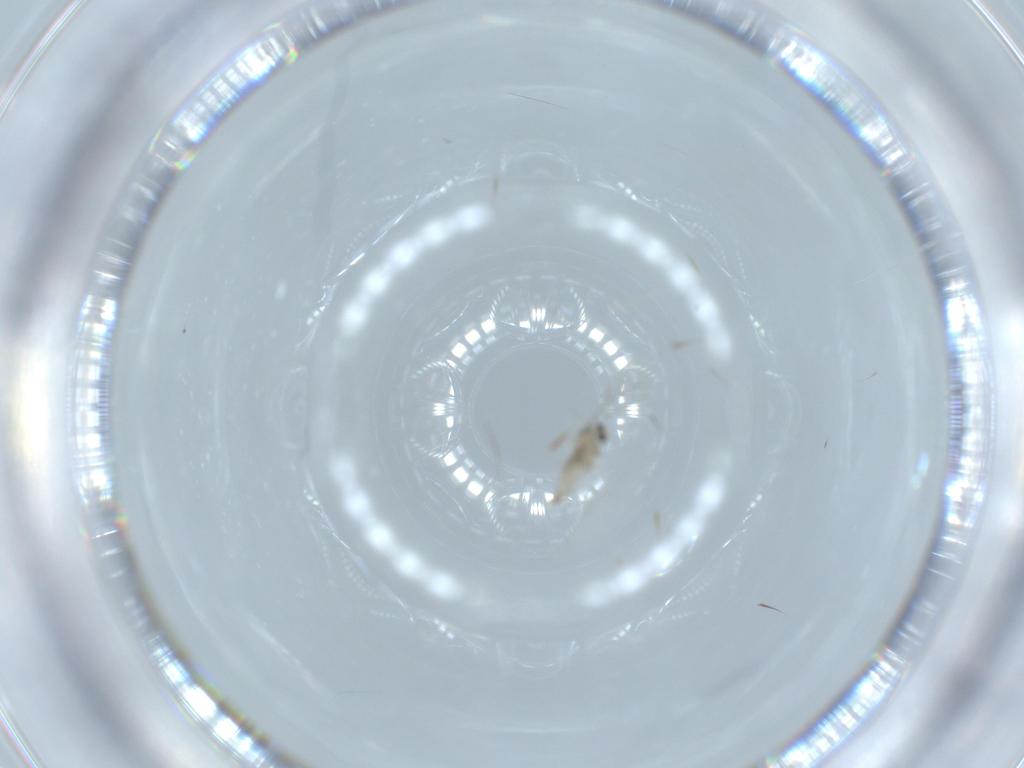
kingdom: Animalia
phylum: Arthropoda
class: Insecta
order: Diptera
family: Cecidomyiidae
